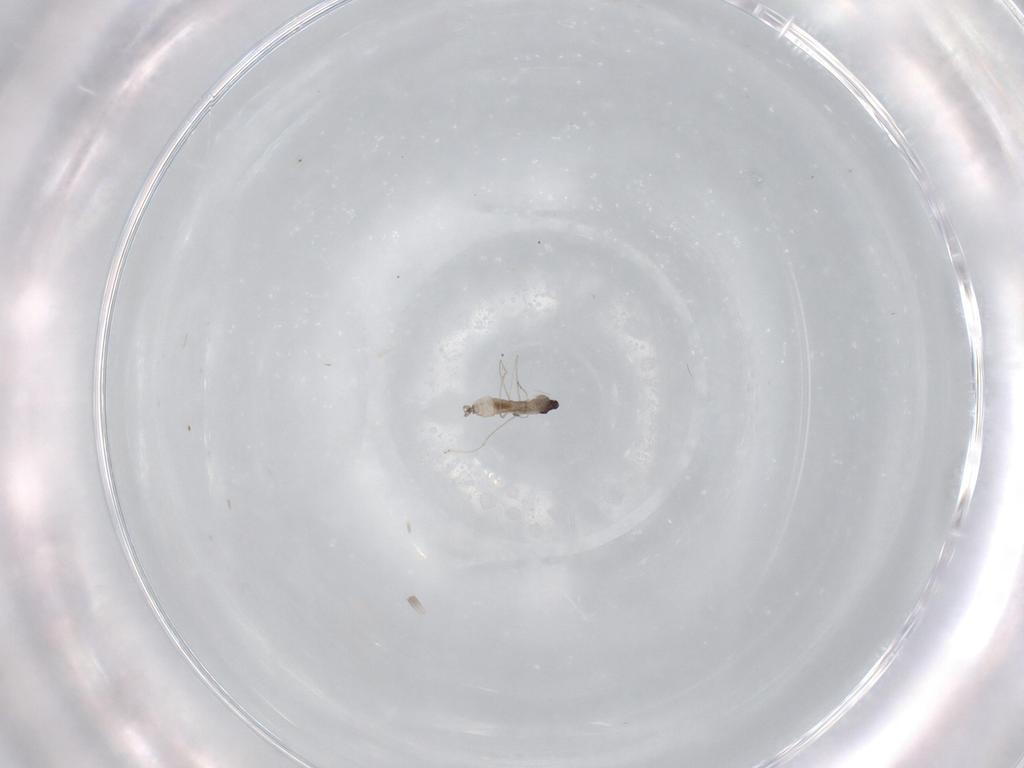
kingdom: Animalia
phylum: Arthropoda
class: Insecta
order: Diptera
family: Cecidomyiidae
